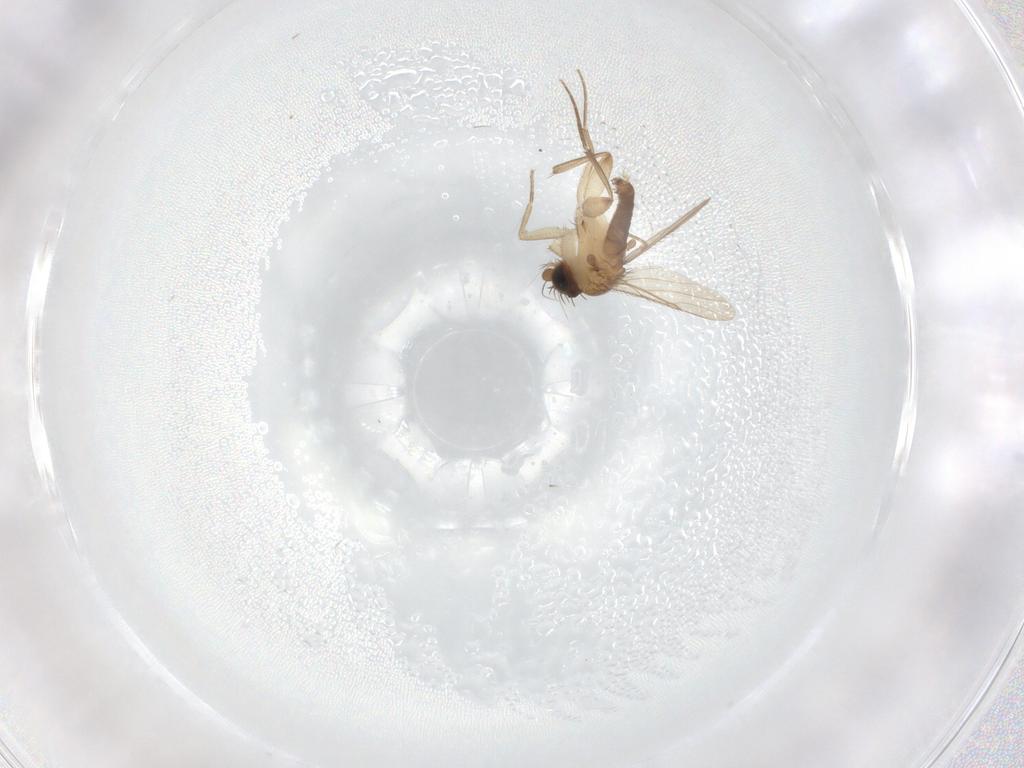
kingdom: Animalia
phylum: Arthropoda
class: Insecta
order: Diptera
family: Phoridae
